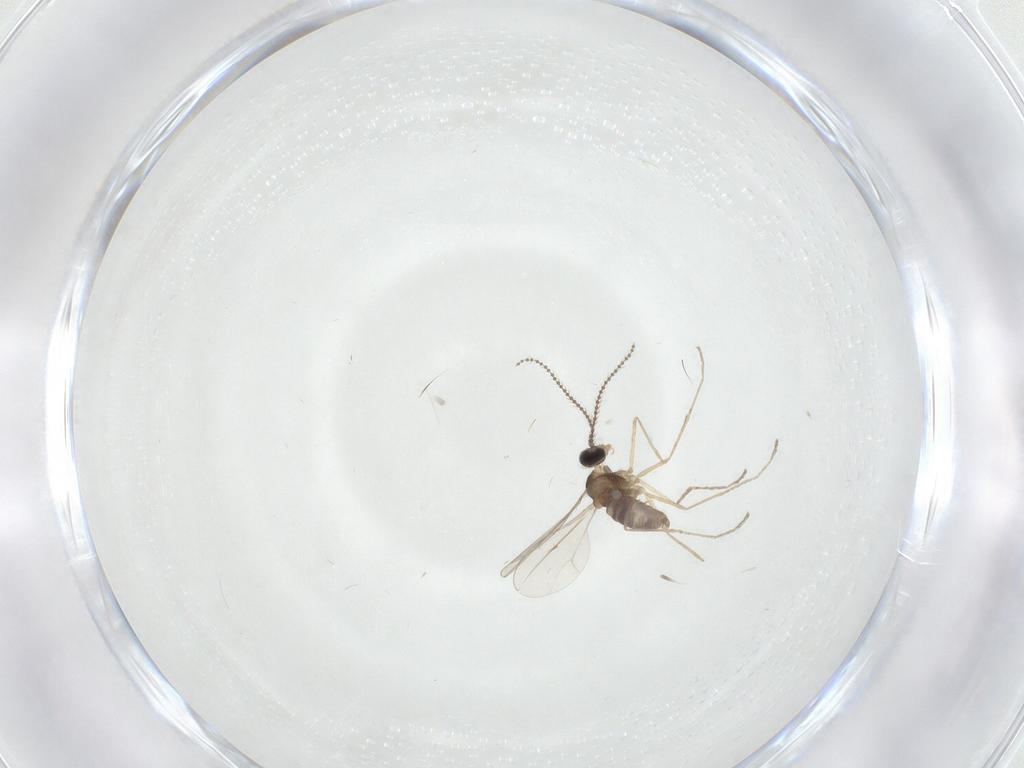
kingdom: Animalia
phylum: Arthropoda
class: Insecta
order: Diptera
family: Cecidomyiidae
